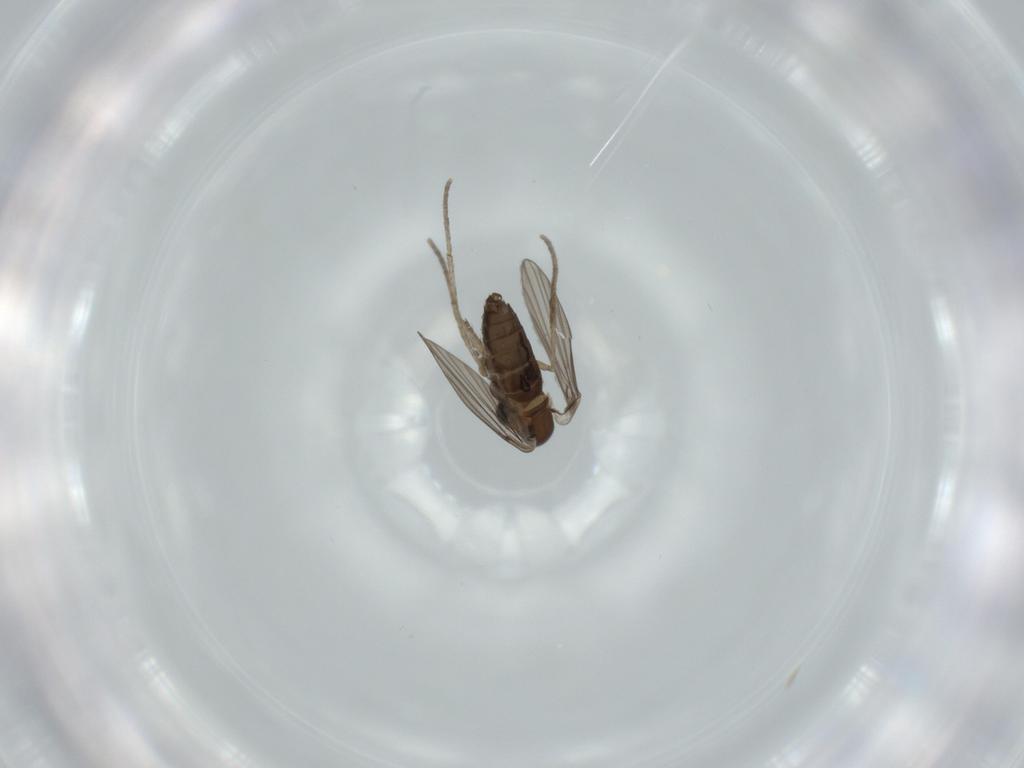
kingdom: Animalia
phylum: Arthropoda
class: Insecta
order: Diptera
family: Psychodidae
